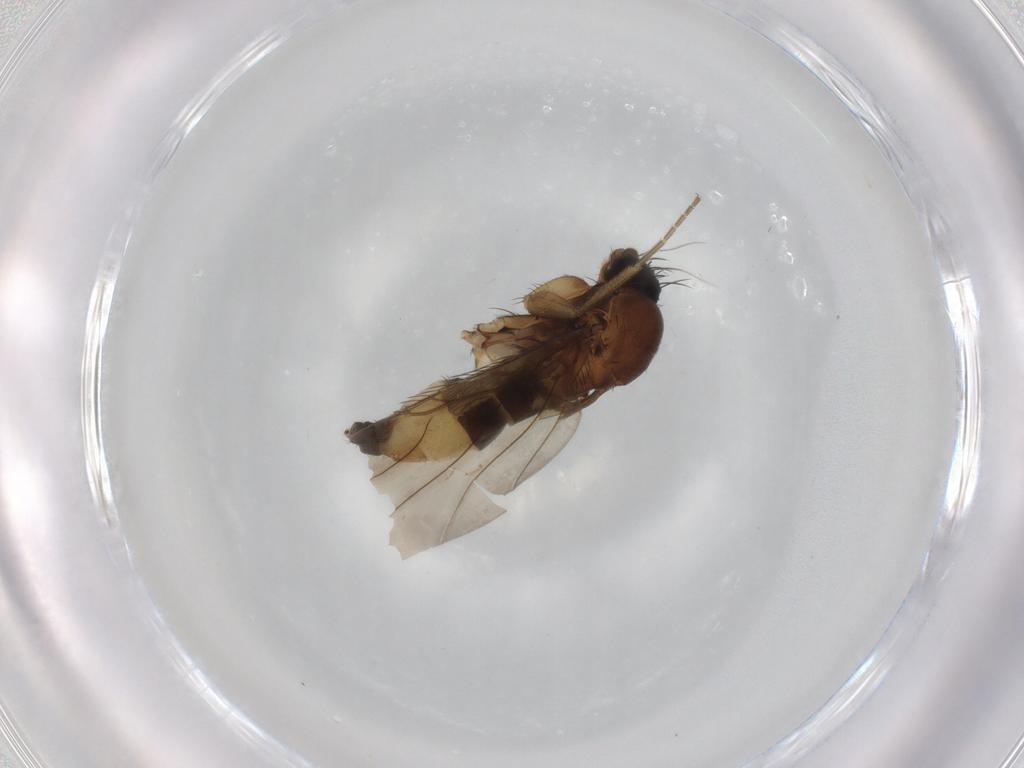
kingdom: Animalia
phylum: Arthropoda
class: Insecta
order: Diptera
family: Phoridae
